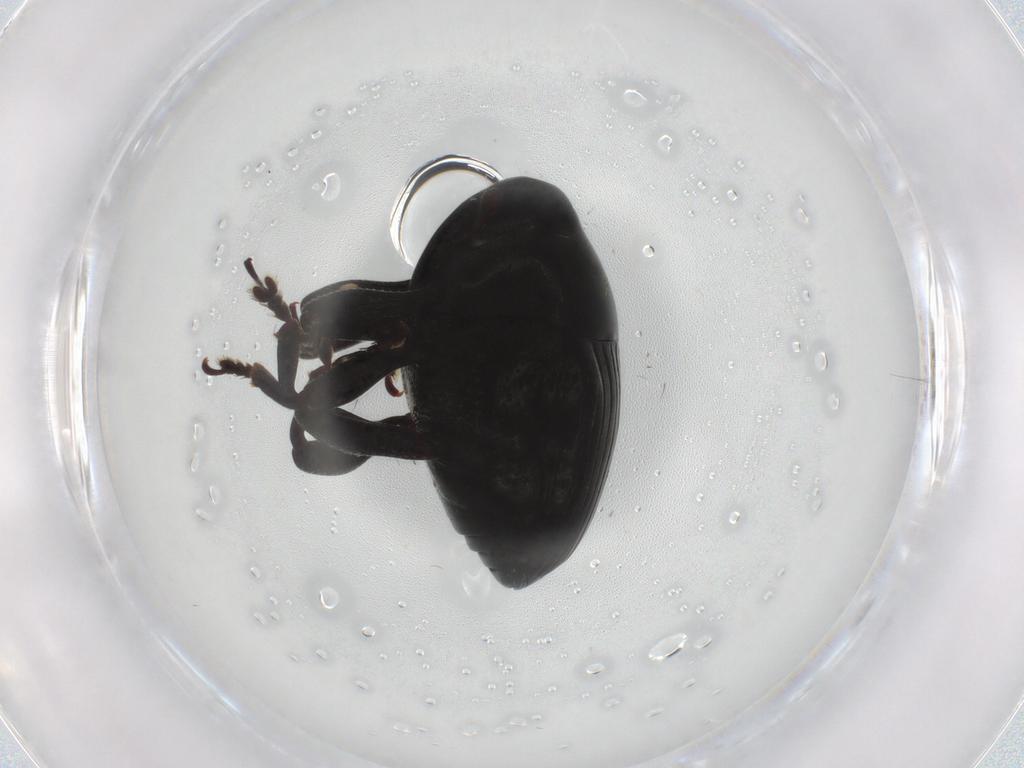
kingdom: Animalia
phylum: Arthropoda
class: Insecta
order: Coleoptera
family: Curculionidae
